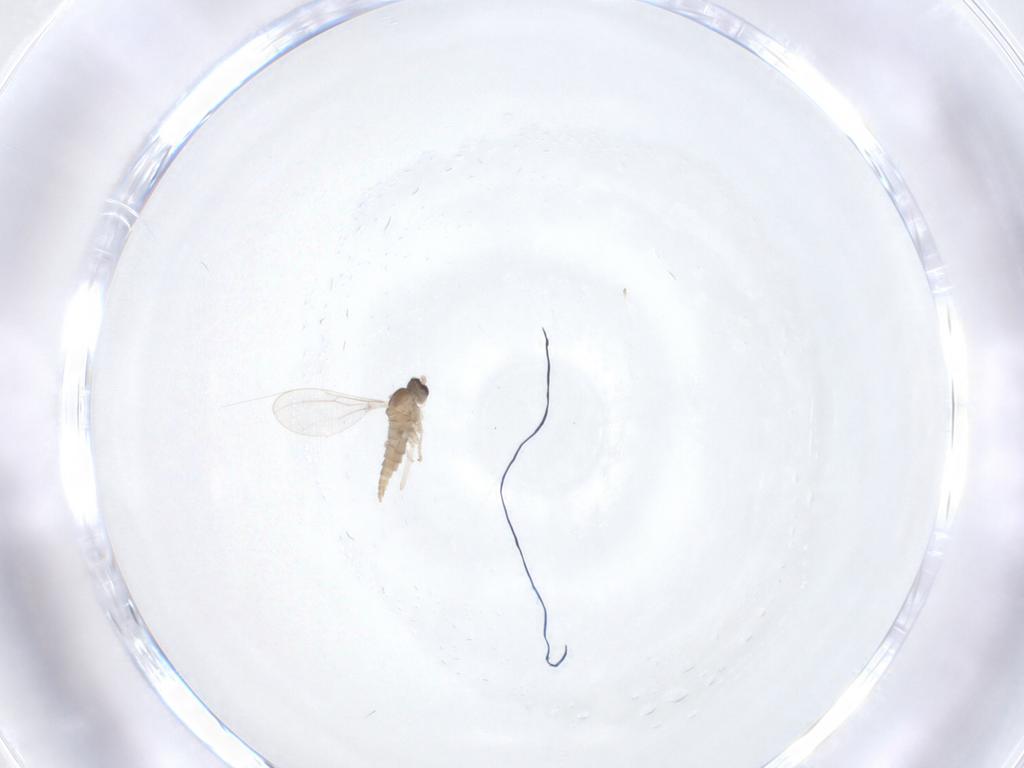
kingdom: Animalia
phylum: Arthropoda
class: Insecta
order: Diptera
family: Cecidomyiidae
